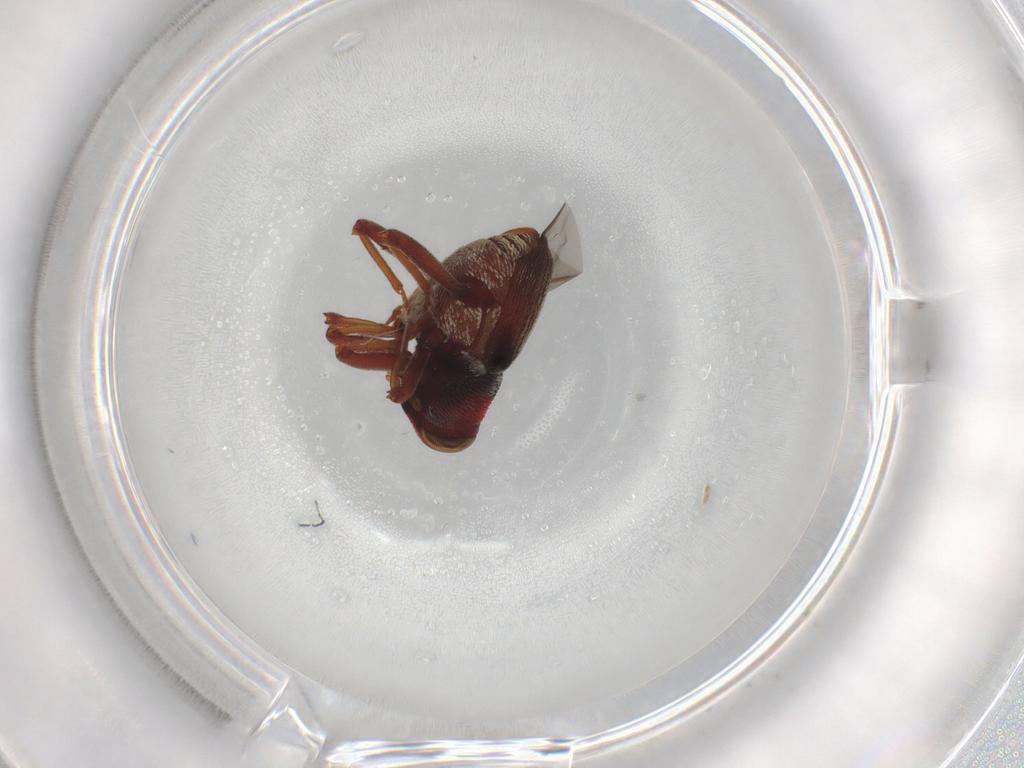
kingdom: Animalia
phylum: Arthropoda
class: Insecta
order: Coleoptera
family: Curculionidae
